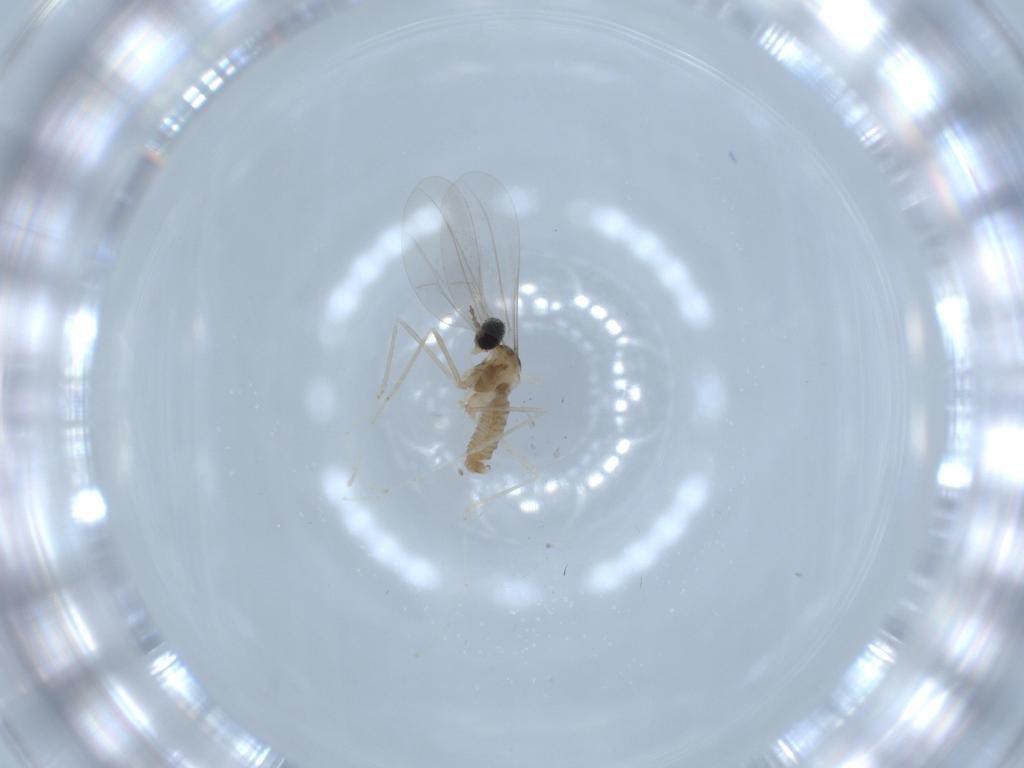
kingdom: Animalia
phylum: Arthropoda
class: Insecta
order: Diptera
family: Cecidomyiidae
